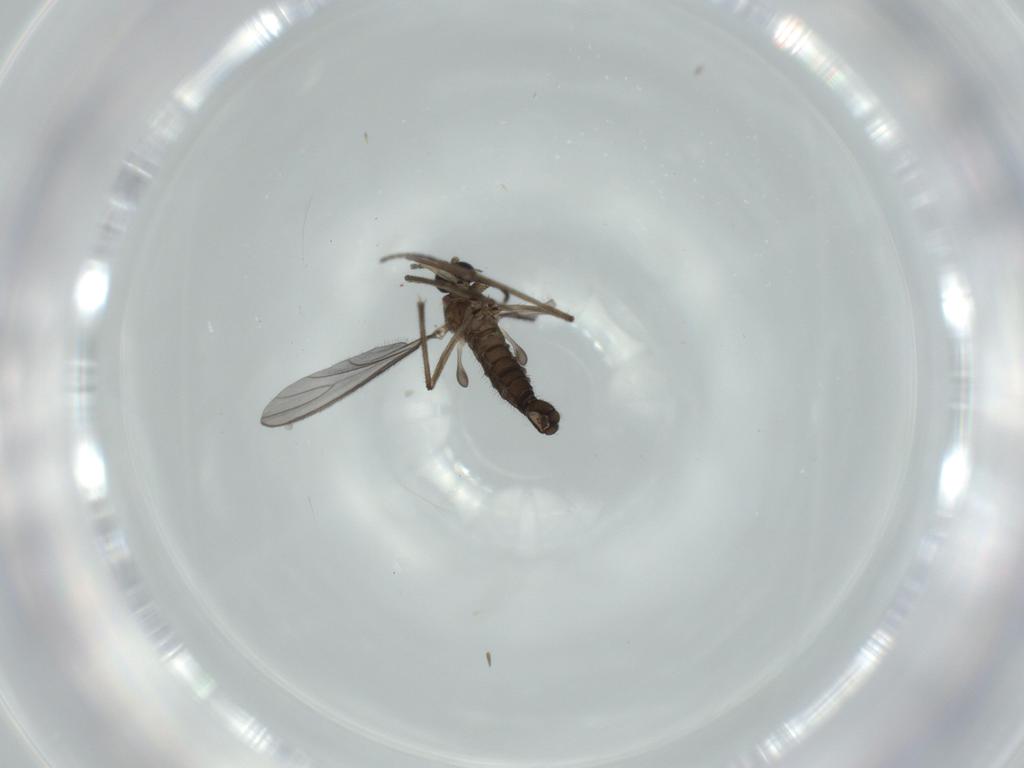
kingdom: Animalia
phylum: Arthropoda
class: Insecta
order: Diptera
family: Sciaridae
